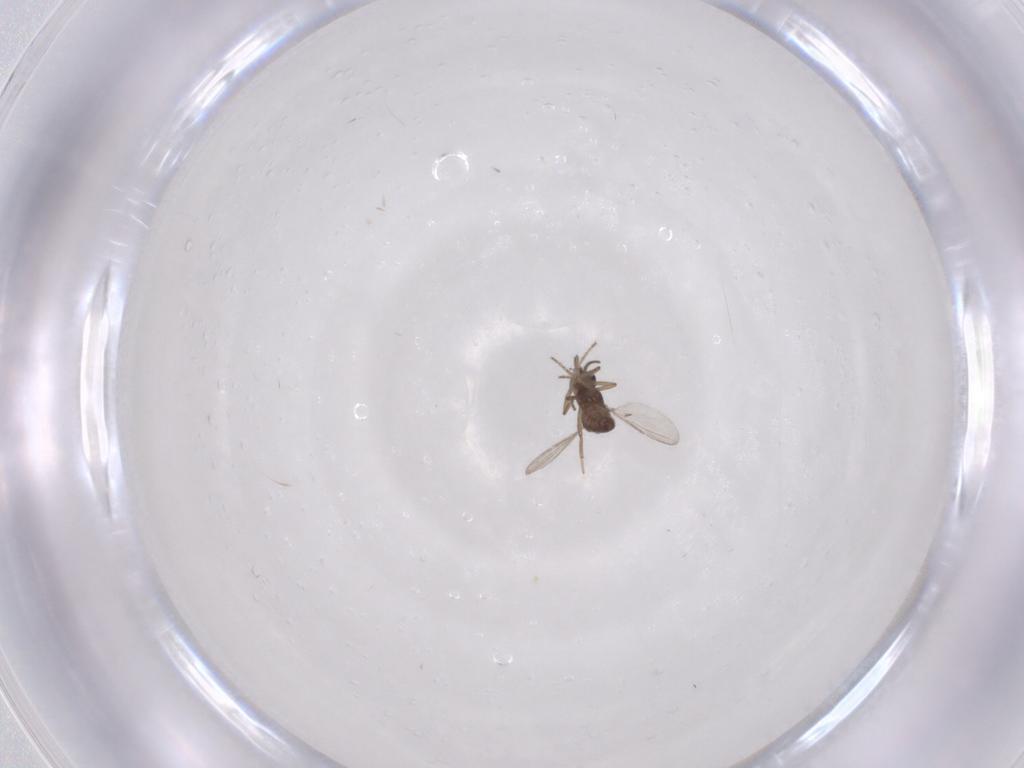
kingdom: Animalia
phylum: Arthropoda
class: Insecta
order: Diptera
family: Ceratopogonidae
